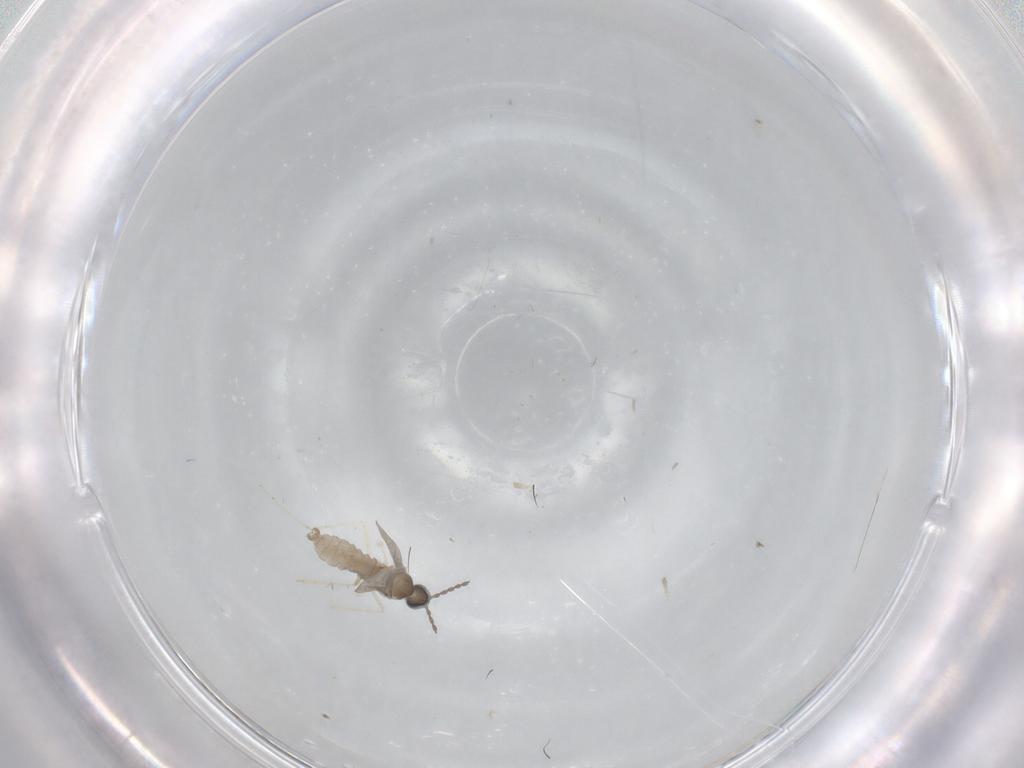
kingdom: Animalia
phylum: Arthropoda
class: Insecta
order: Diptera
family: Cecidomyiidae
